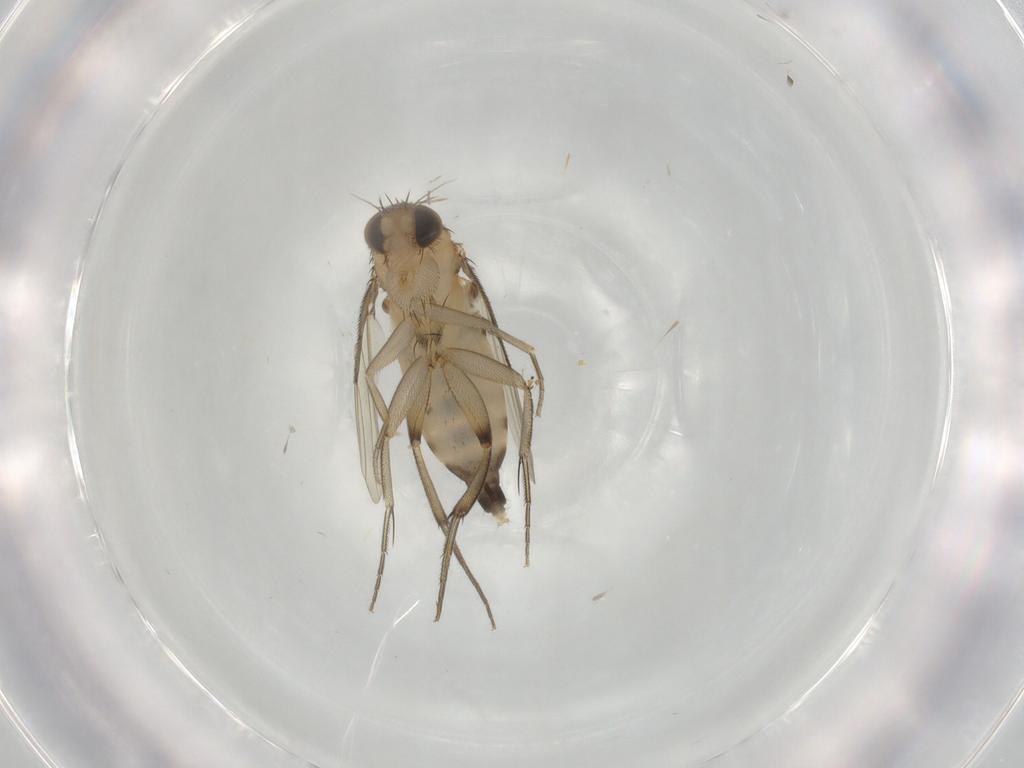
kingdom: Animalia
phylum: Arthropoda
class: Insecta
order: Diptera
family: Phoridae
